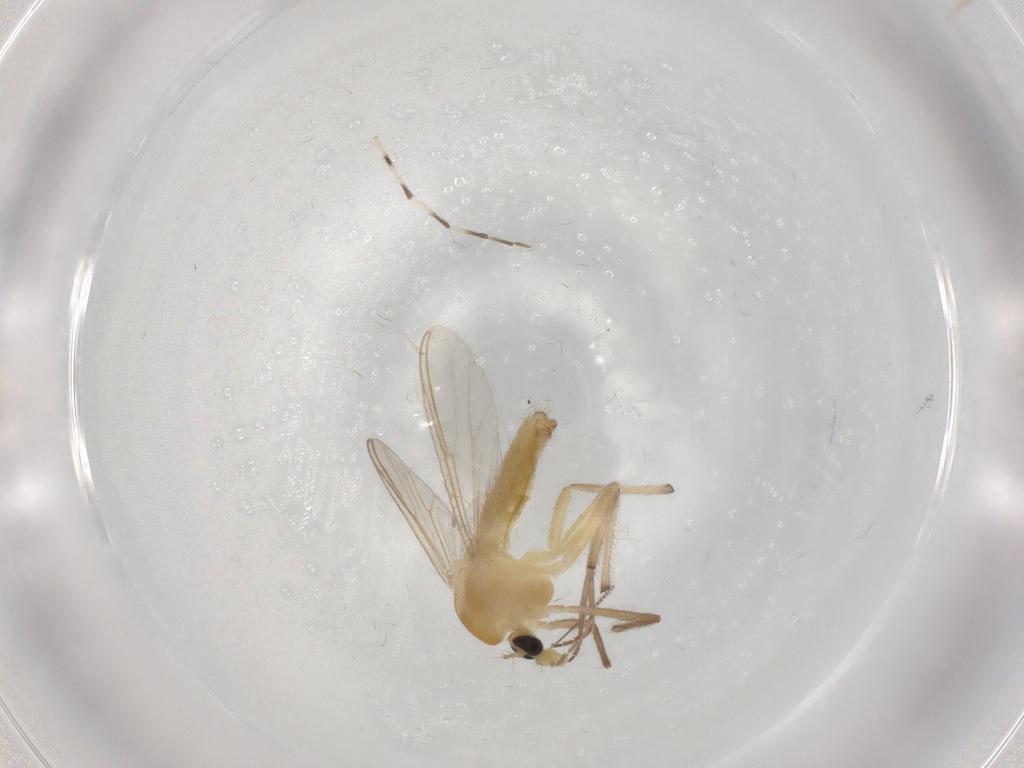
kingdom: Animalia
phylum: Arthropoda
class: Insecta
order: Diptera
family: Chironomidae
